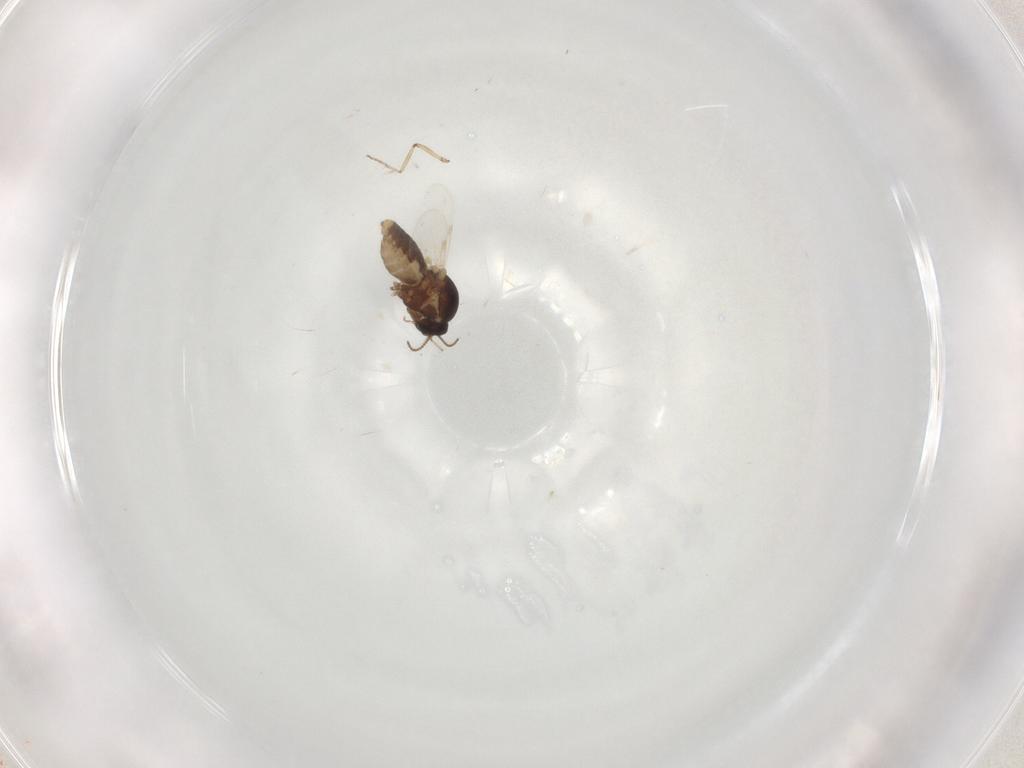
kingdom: Animalia
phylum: Arthropoda
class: Insecta
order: Diptera
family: Ceratopogonidae
